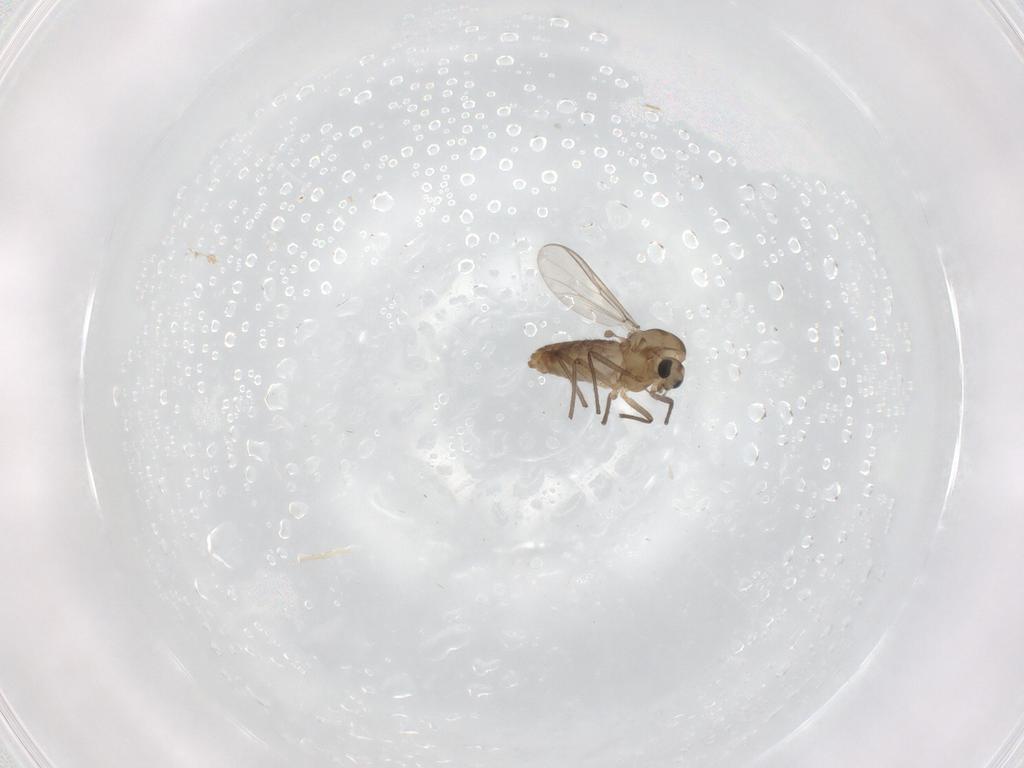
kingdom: Animalia
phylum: Arthropoda
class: Insecta
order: Diptera
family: Chironomidae
